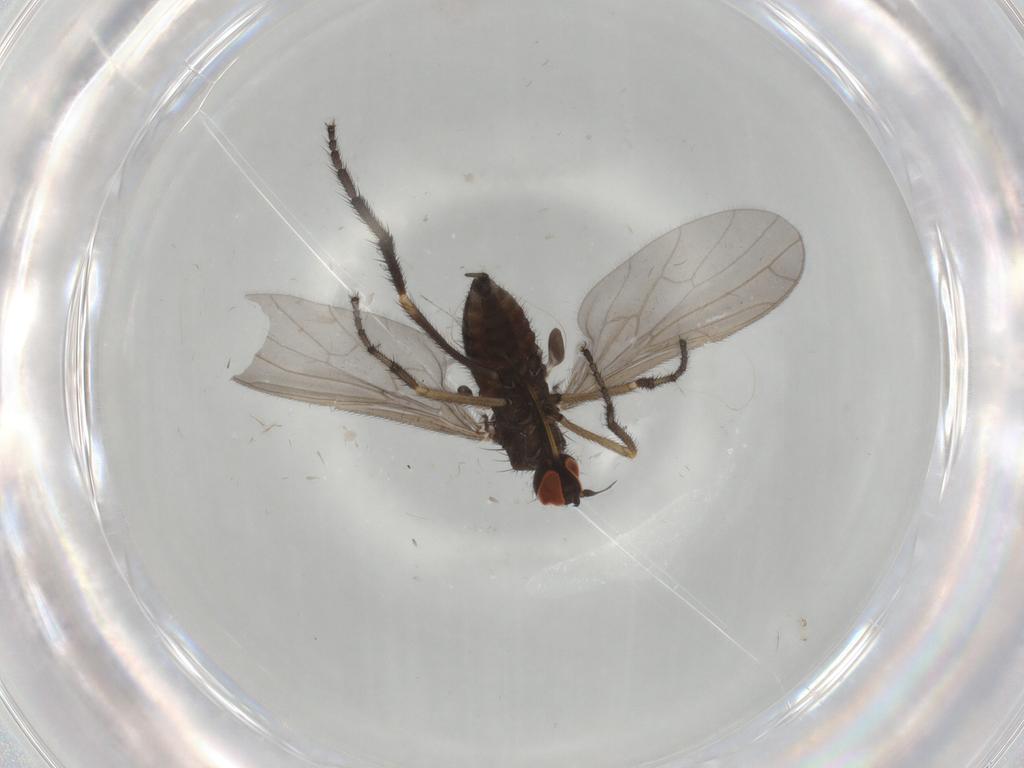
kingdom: Animalia
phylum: Arthropoda
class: Insecta
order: Diptera
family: Empididae
